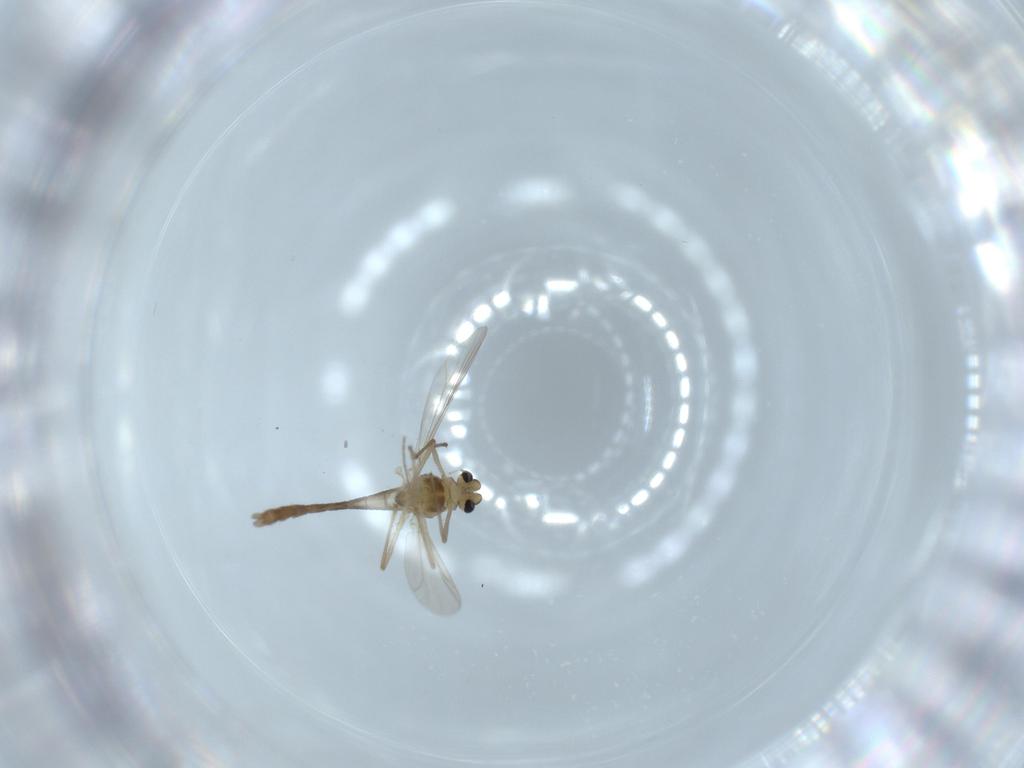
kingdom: Animalia
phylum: Arthropoda
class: Insecta
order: Diptera
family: Chironomidae
